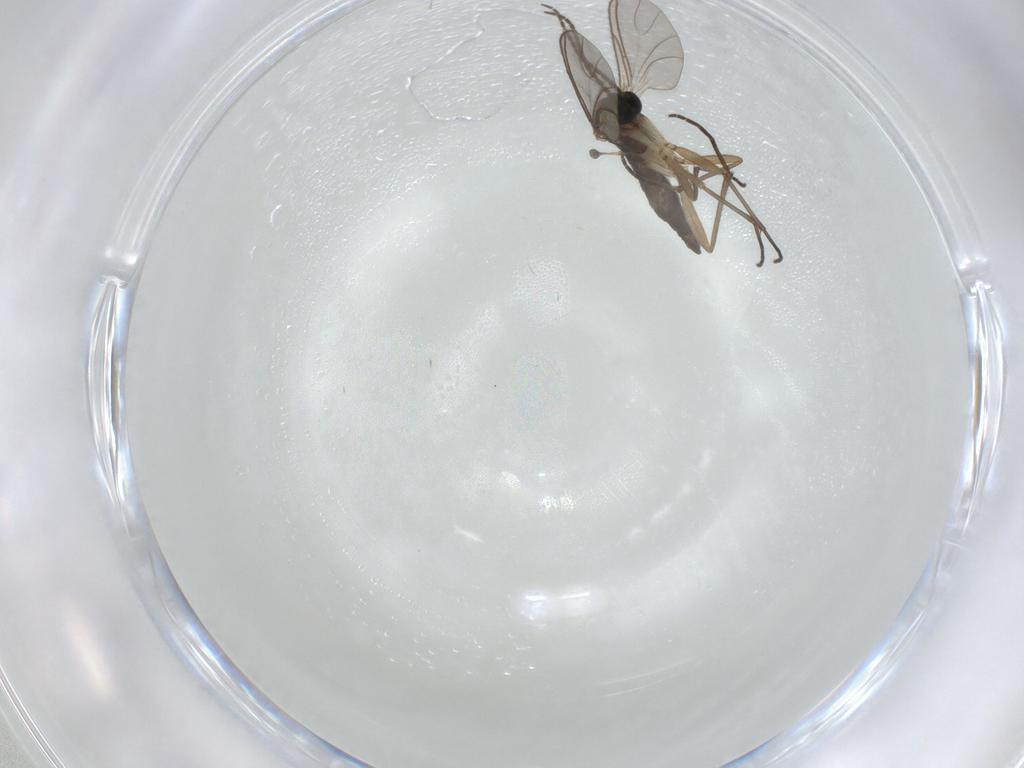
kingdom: Animalia
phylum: Arthropoda
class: Insecta
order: Diptera
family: Sciaridae
